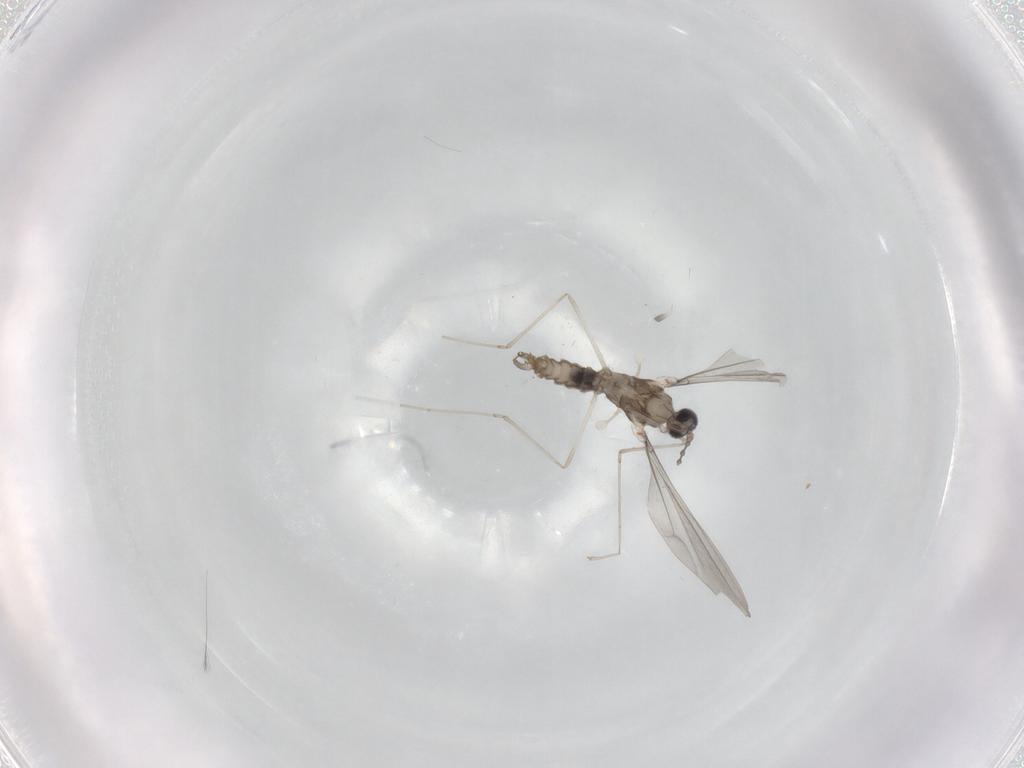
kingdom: Animalia
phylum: Arthropoda
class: Insecta
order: Diptera
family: Cecidomyiidae
